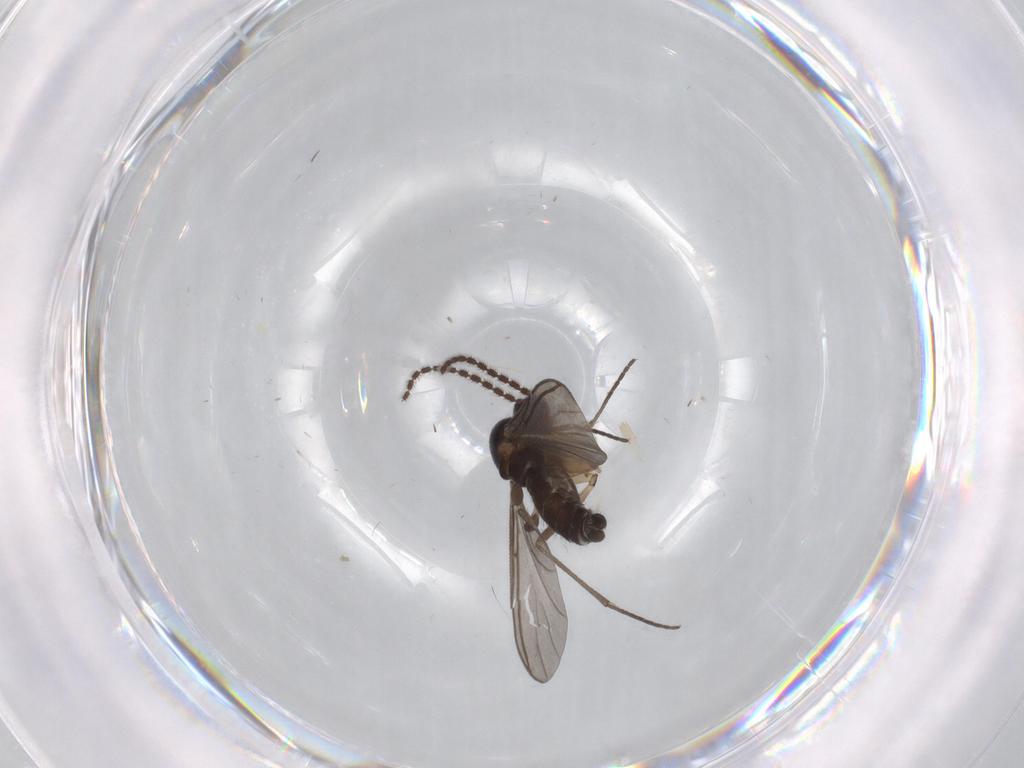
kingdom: Animalia
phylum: Arthropoda
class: Insecta
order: Diptera
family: Sciaridae
